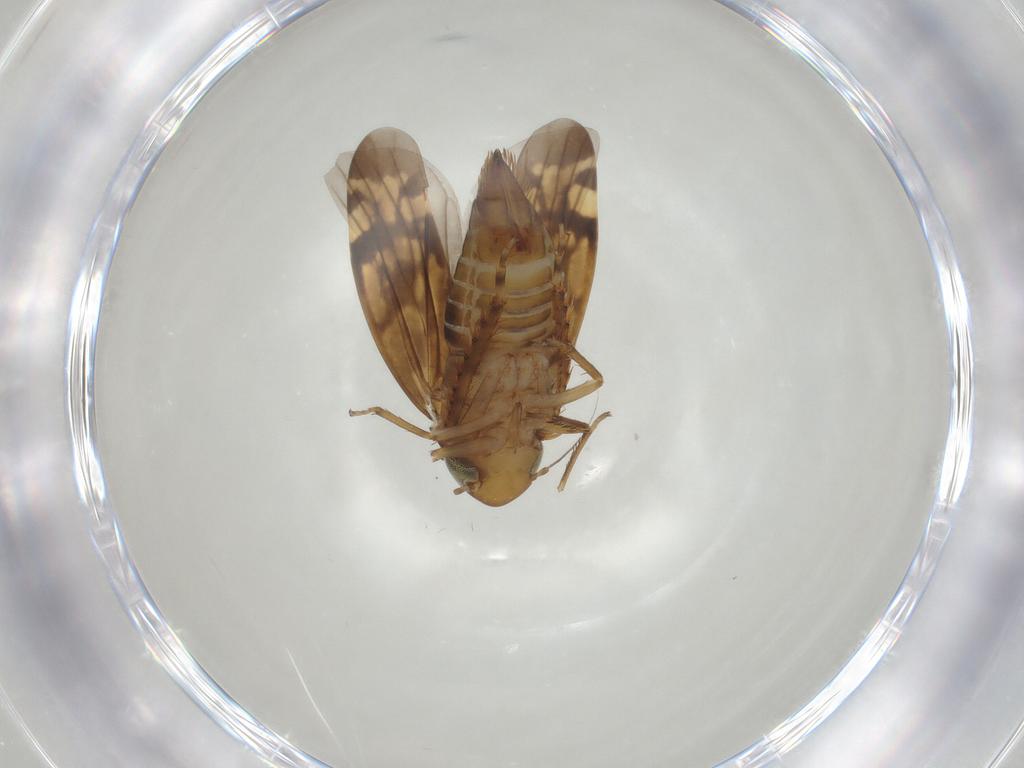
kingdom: Animalia
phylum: Arthropoda
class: Insecta
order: Hemiptera
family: Cicadellidae
